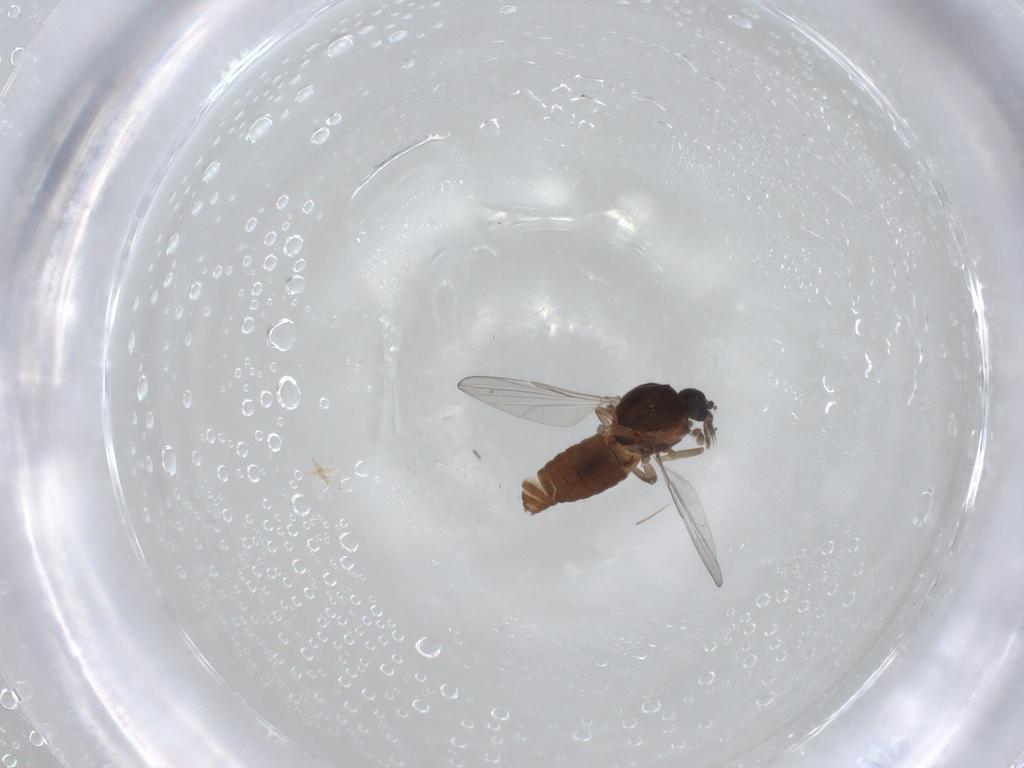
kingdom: Animalia
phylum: Arthropoda
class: Insecta
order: Diptera
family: Ceratopogonidae
